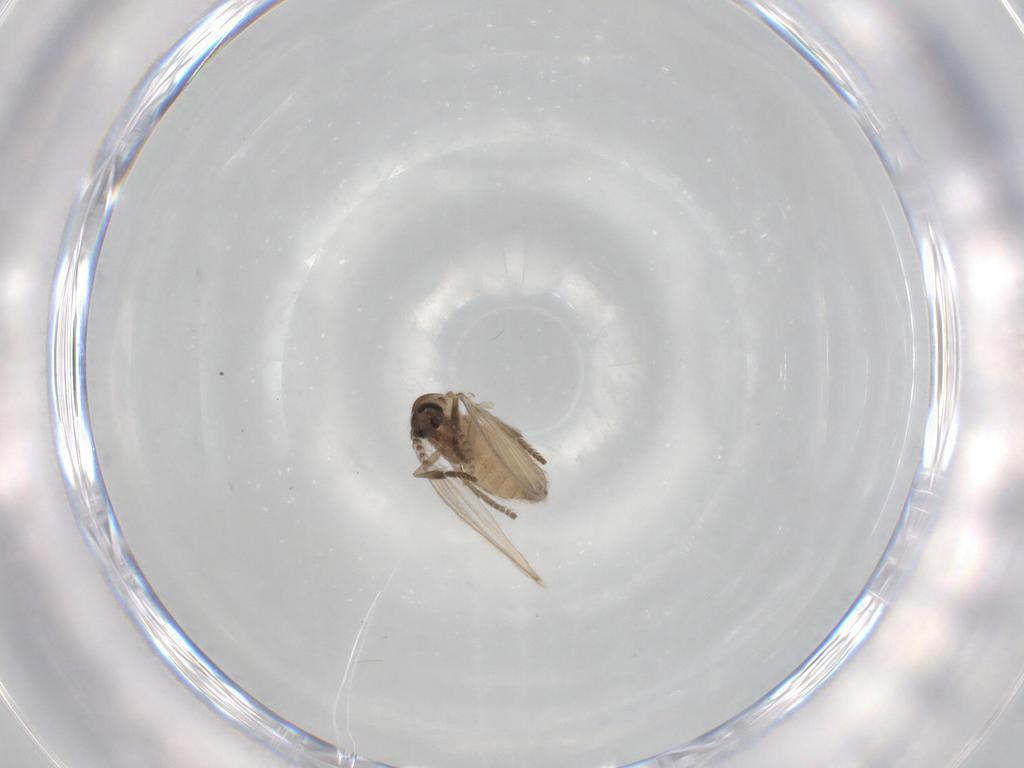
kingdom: Animalia
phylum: Arthropoda
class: Insecta
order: Diptera
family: Psychodidae
